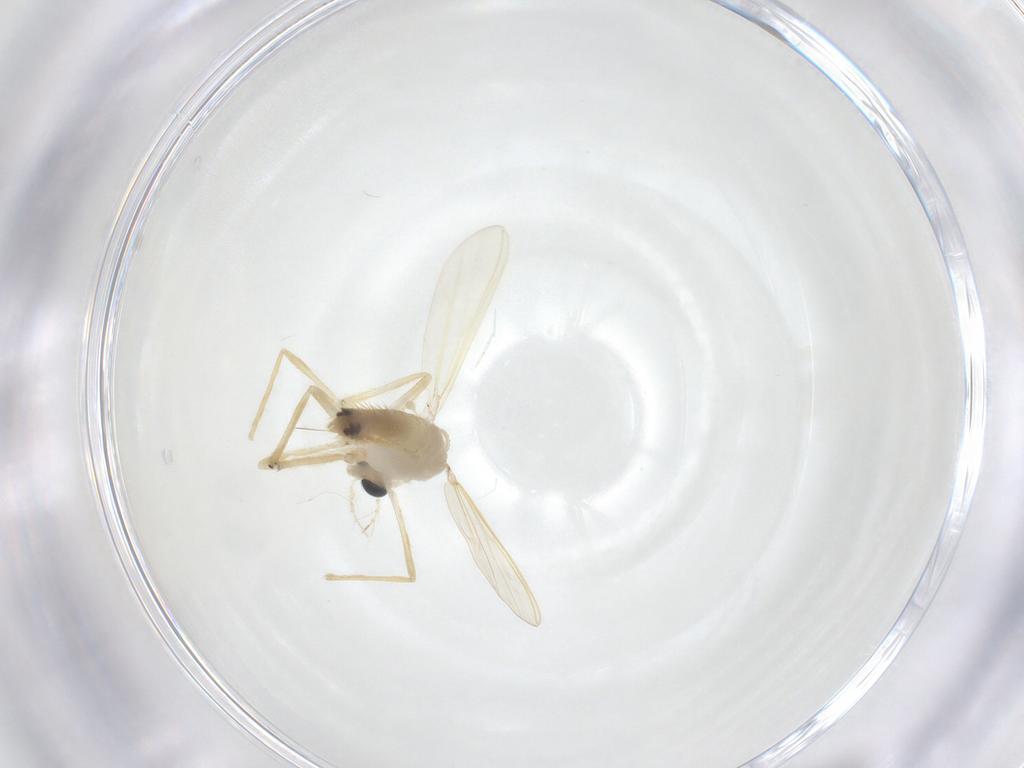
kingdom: Animalia
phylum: Arthropoda
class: Insecta
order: Diptera
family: Chironomidae
